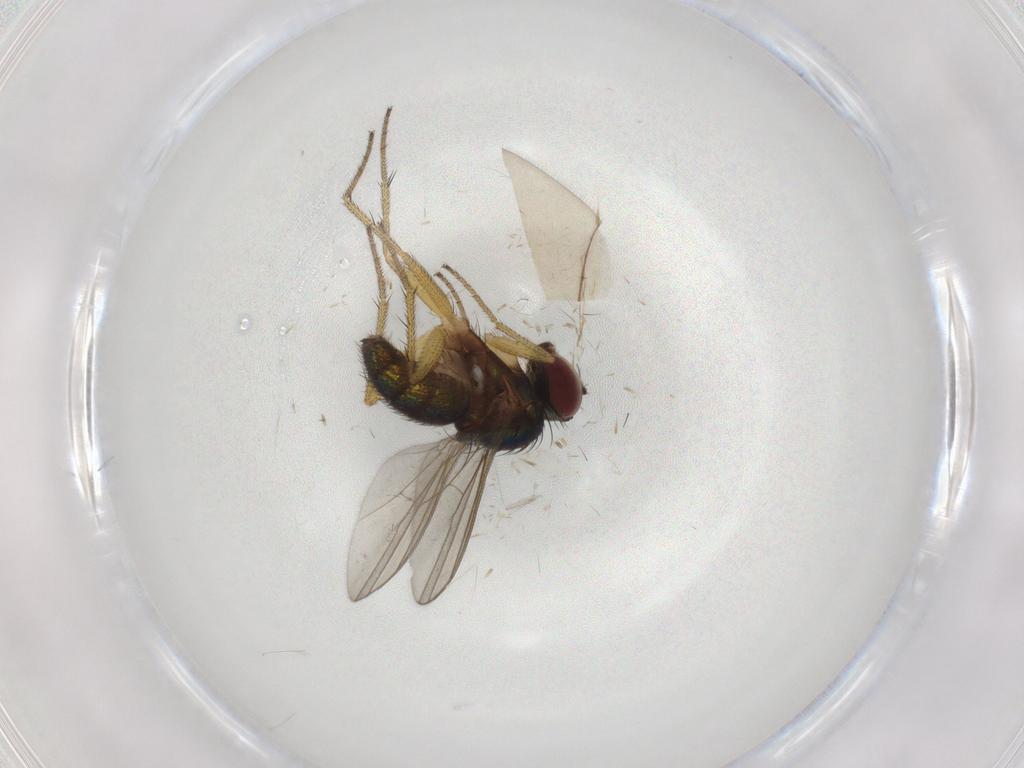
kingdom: Animalia
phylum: Arthropoda
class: Insecta
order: Diptera
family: Dolichopodidae
